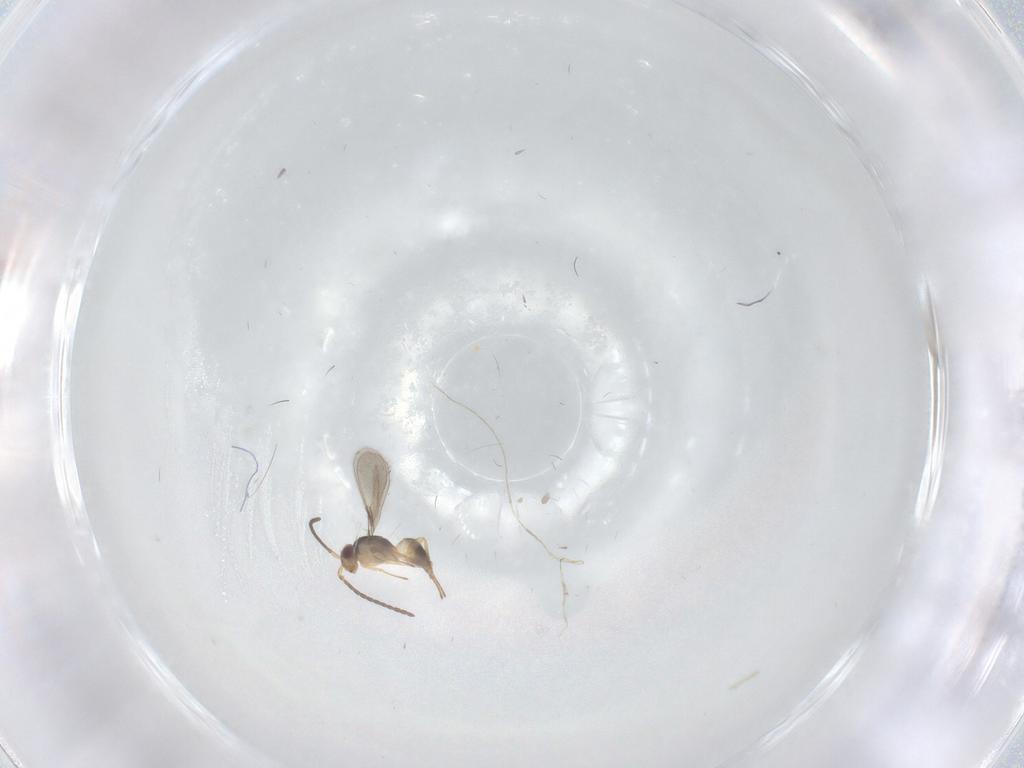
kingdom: Animalia
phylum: Arthropoda
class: Insecta
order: Hymenoptera
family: Mymaridae
